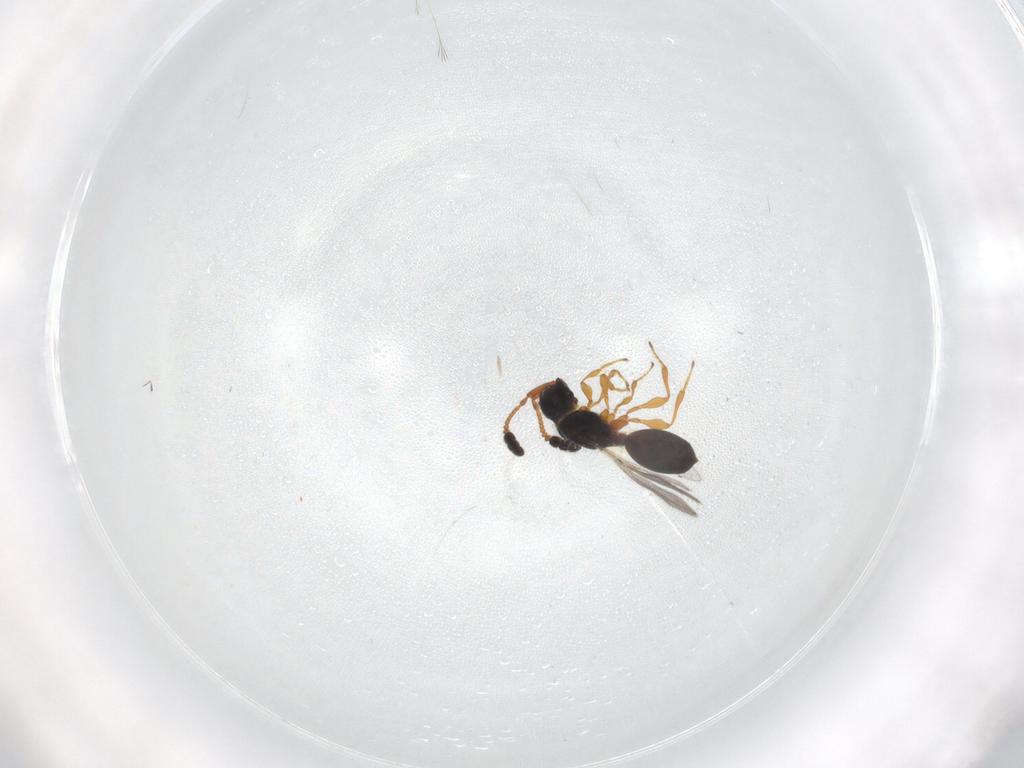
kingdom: Animalia
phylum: Arthropoda
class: Insecta
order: Hymenoptera
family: Diapriidae
